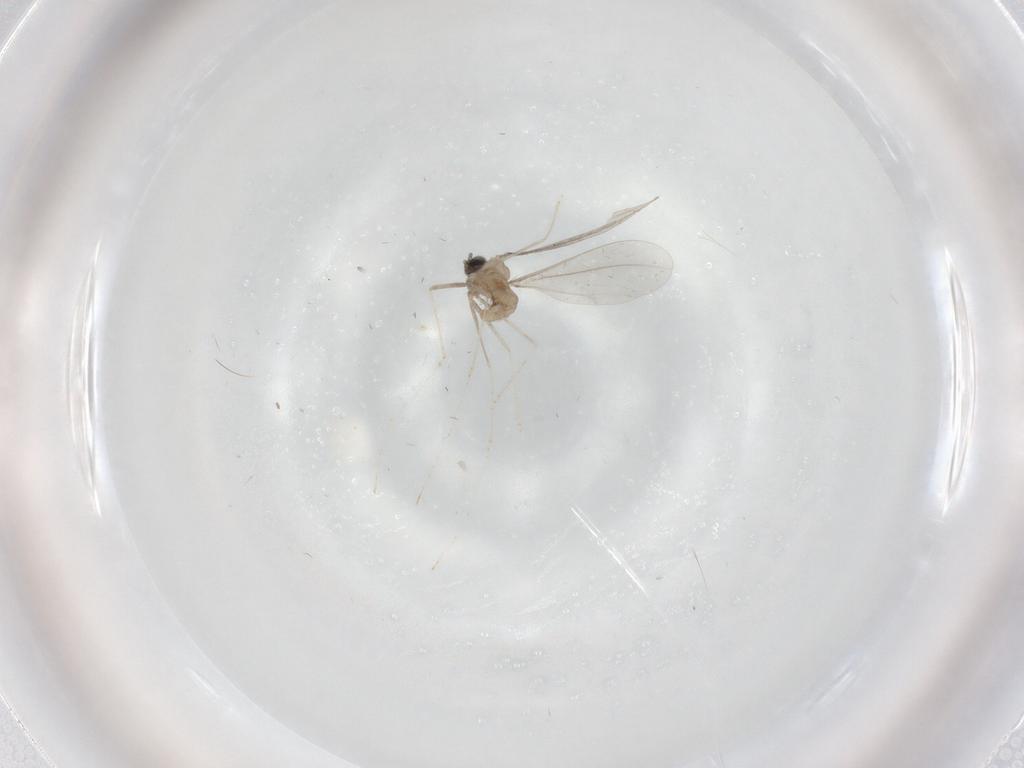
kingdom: Animalia
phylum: Arthropoda
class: Insecta
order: Diptera
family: Cecidomyiidae
